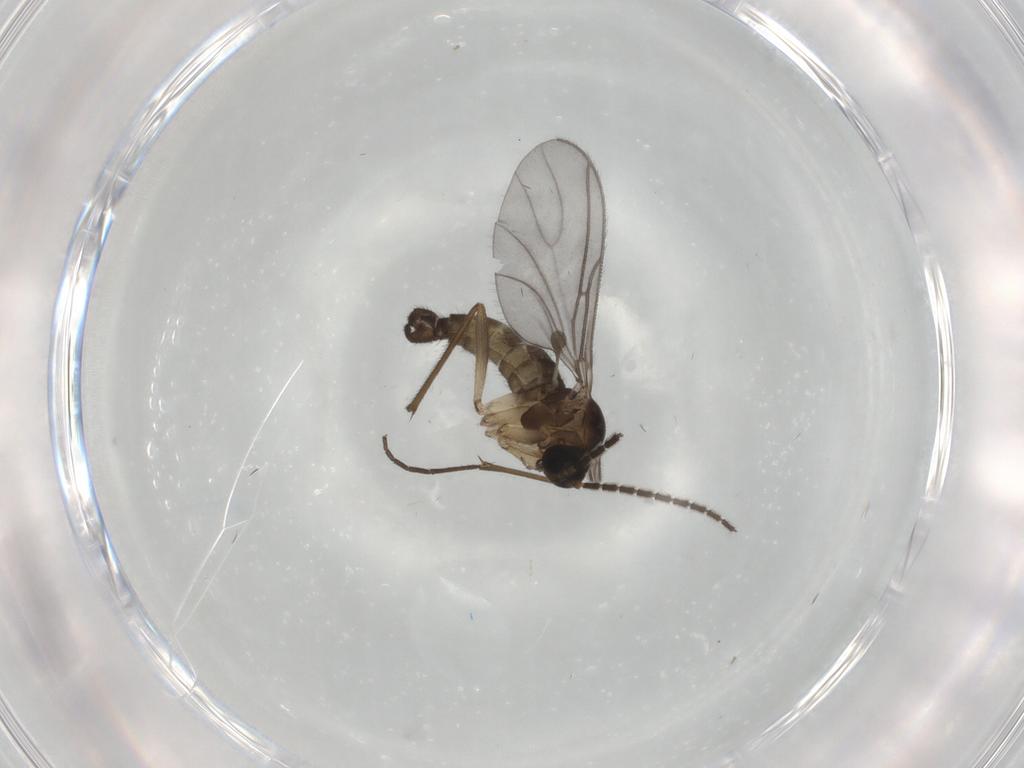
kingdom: Animalia
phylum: Arthropoda
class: Insecta
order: Diptera
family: Sciaridae
